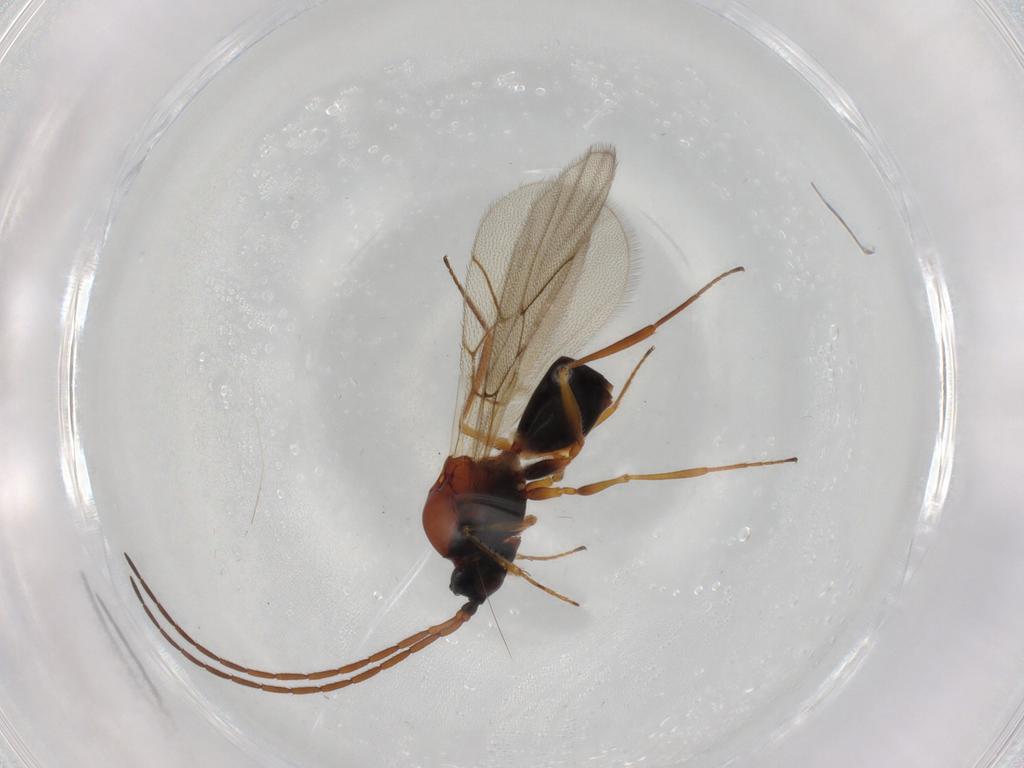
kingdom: Animalia
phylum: Arthropoda
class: Insecta
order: Hymenoptera
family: Figitidae
